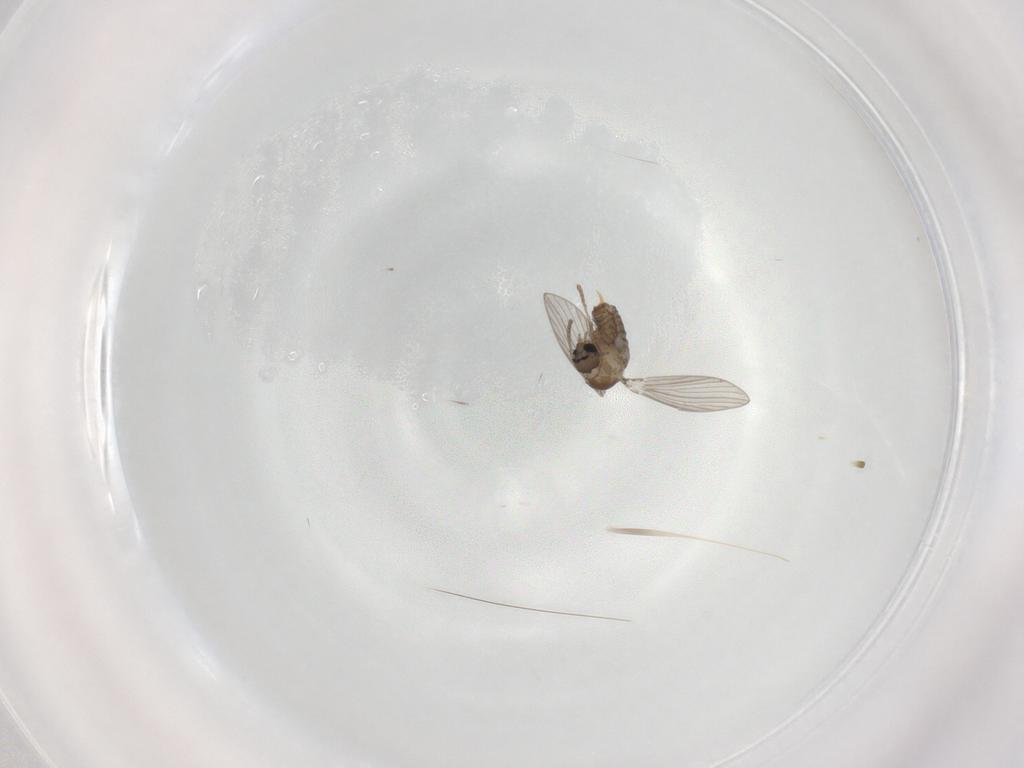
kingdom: Animalia
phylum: Arthropoda
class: Insecta
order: Diptera
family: Psychodidae
